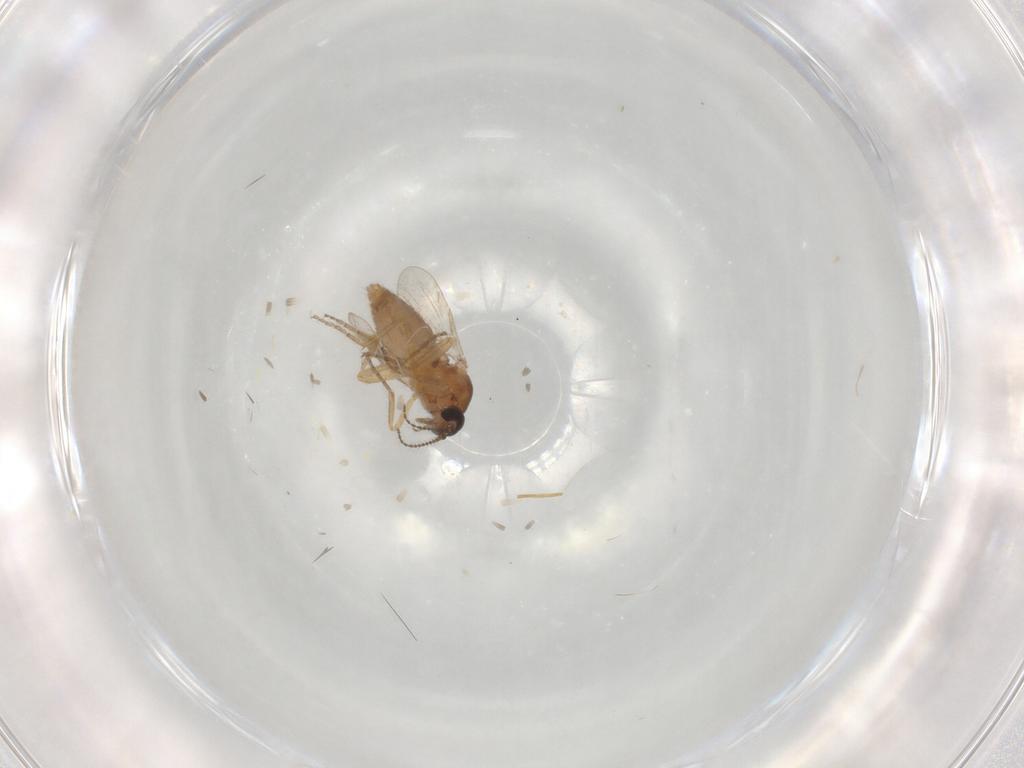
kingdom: Animalia
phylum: Arthropoda
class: Insecta
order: Diptera
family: Ceratopogonidae
